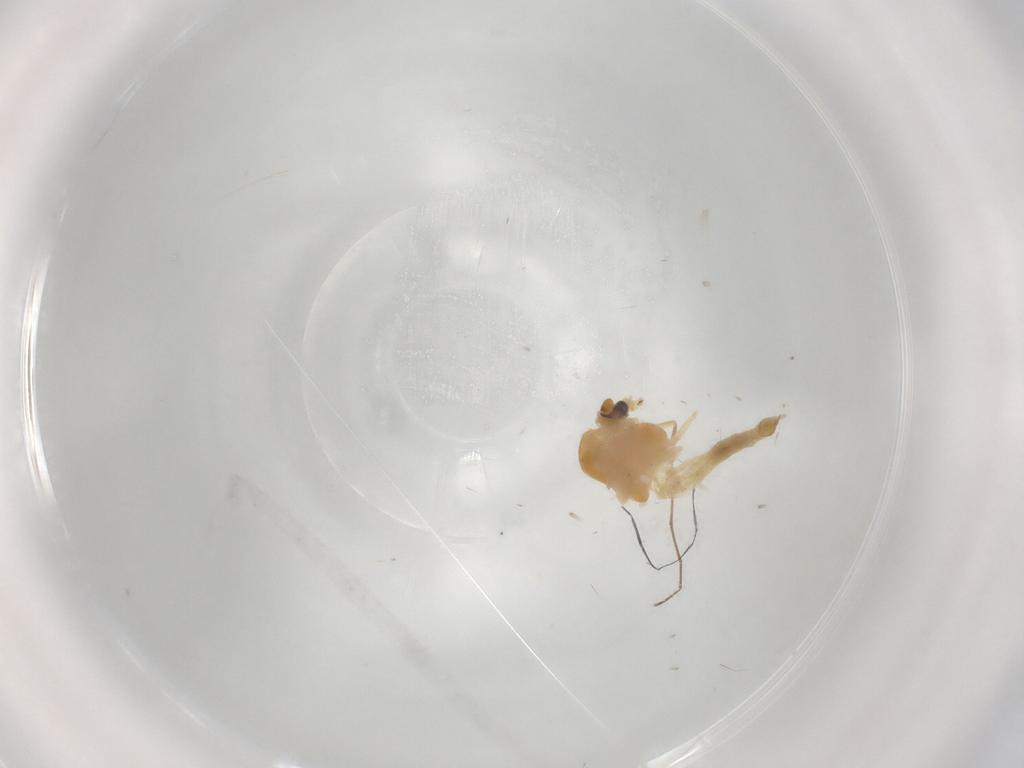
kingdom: Animalia
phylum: Arthropoda
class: Insecta
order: Diptera
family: Chironomidae
